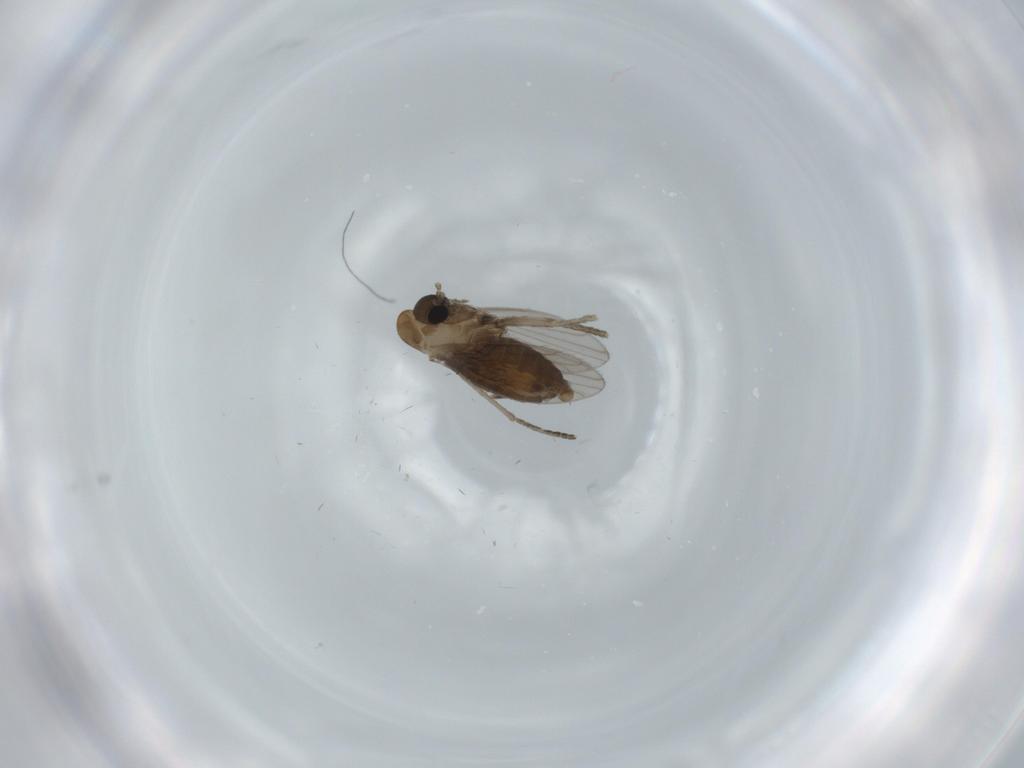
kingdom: Animalia
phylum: Arthropoda
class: Insecta
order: Diptera
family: Psychodidae
